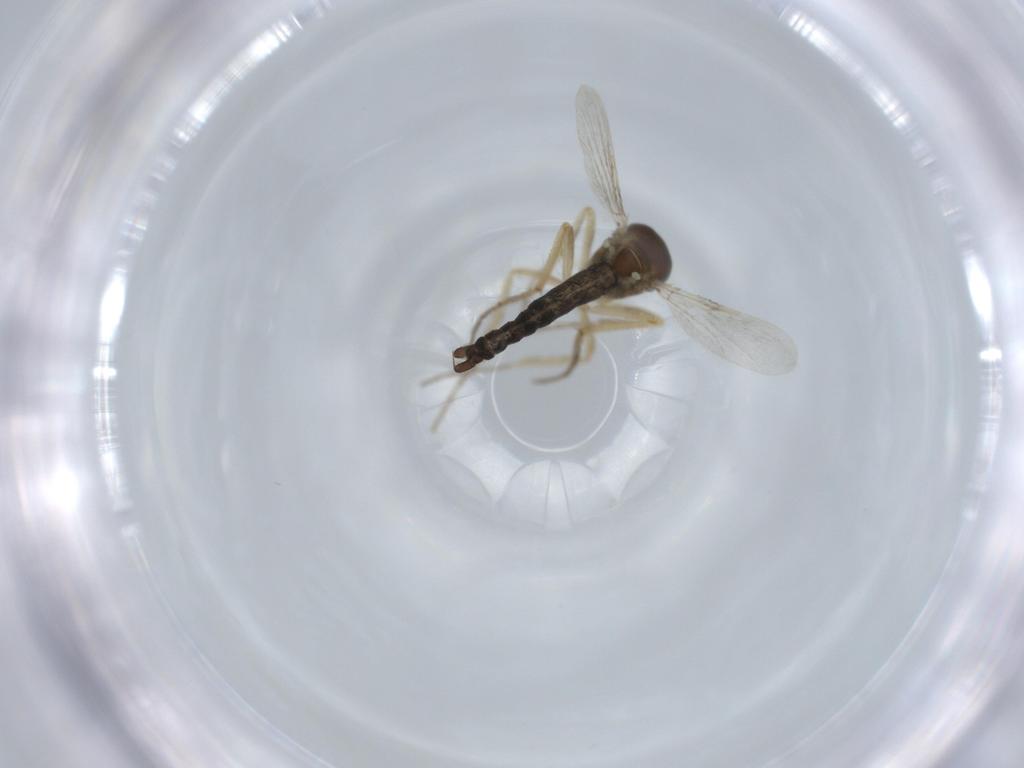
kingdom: Animalia
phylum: Arthropoda
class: Insecta
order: Diptera
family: Ceratopogonidae
